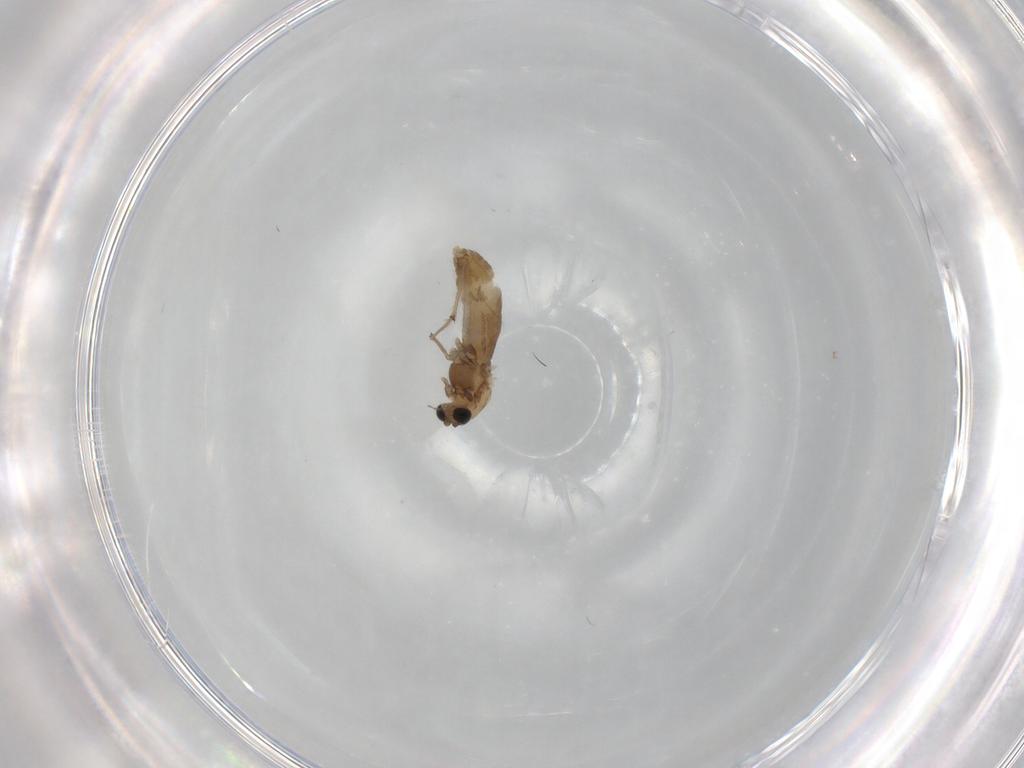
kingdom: Animalia
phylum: Arthropoda
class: Insecta
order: Diptera
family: Chironomidae
